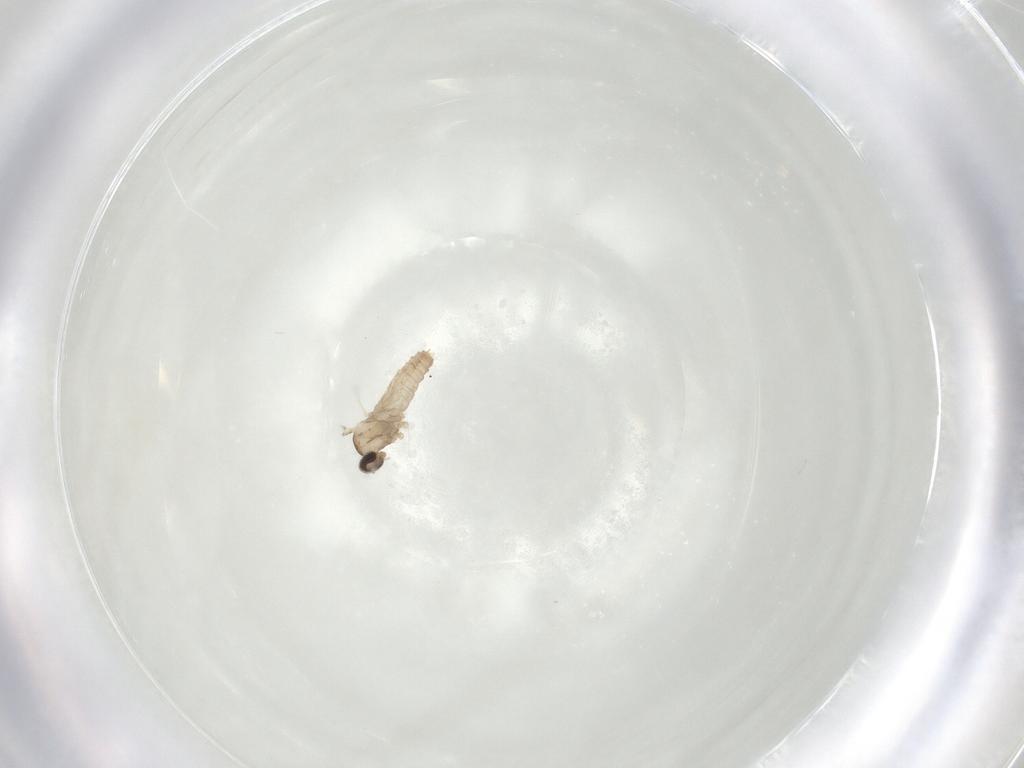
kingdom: Animalia
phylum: Arthropoda
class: Insecta
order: Diptera
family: Cecidomyiidae
